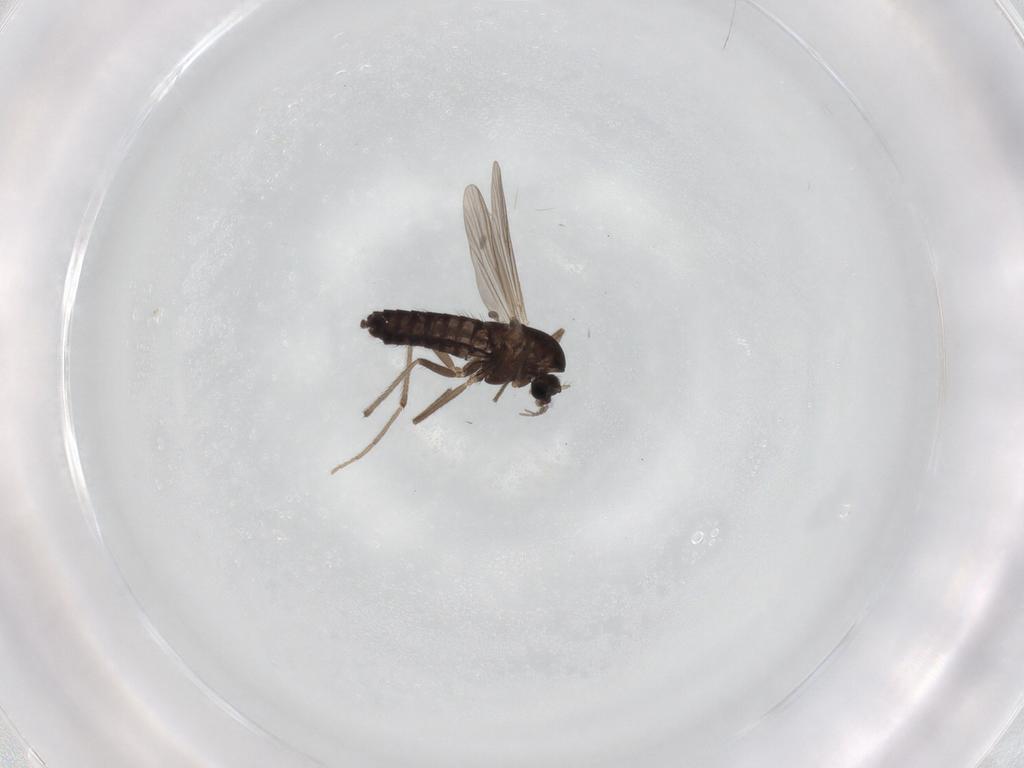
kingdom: Animalia
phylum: Arthropoda
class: Insecta
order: Diptera
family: Chironomidae
